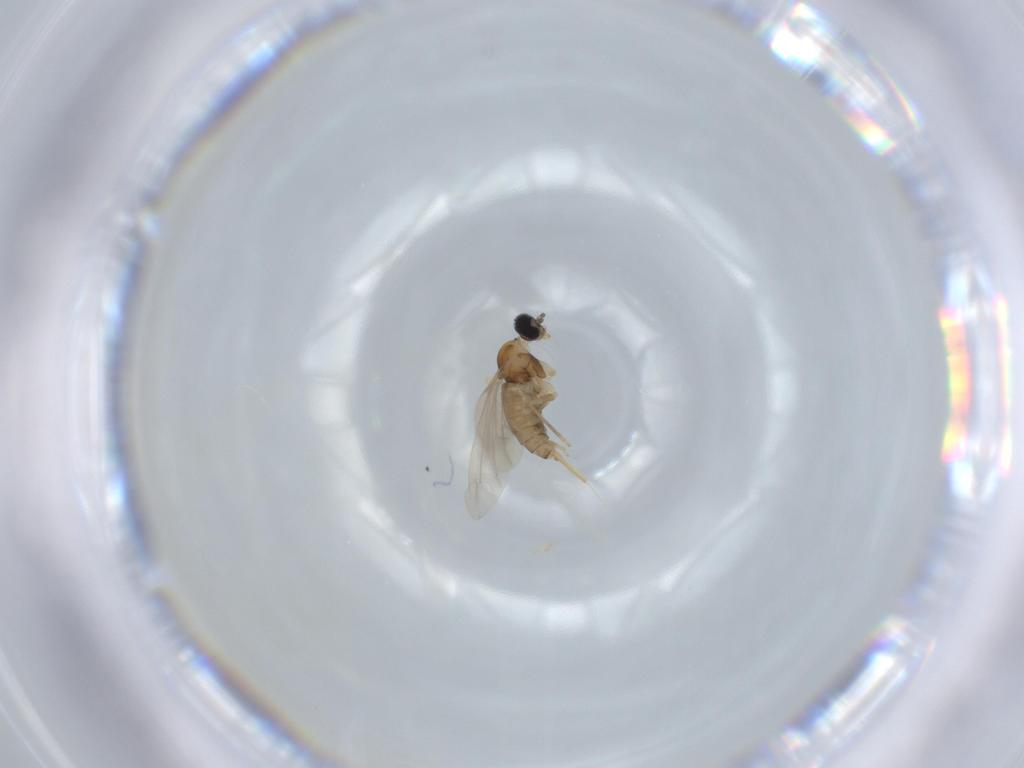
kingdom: Animalia
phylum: Arthropoda
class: Insecta
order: Diptera
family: Cecidomyiidae
